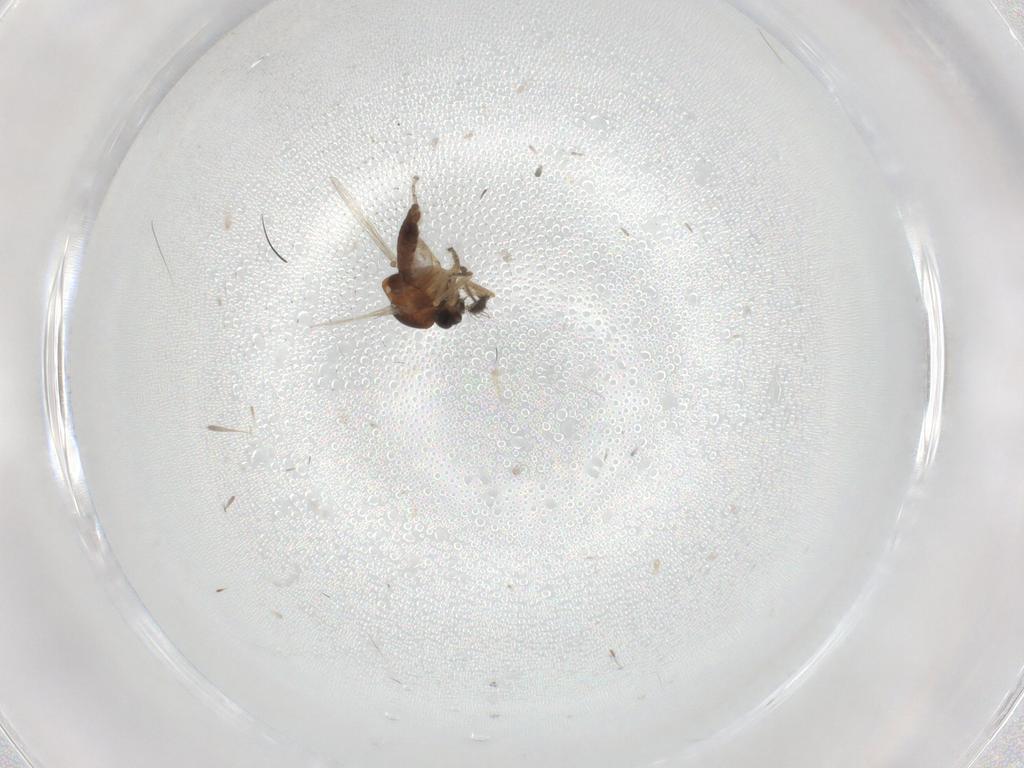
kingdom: Animalia
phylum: Arthropoda
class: Insecta
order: Diptera
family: Ceratopogonidae
